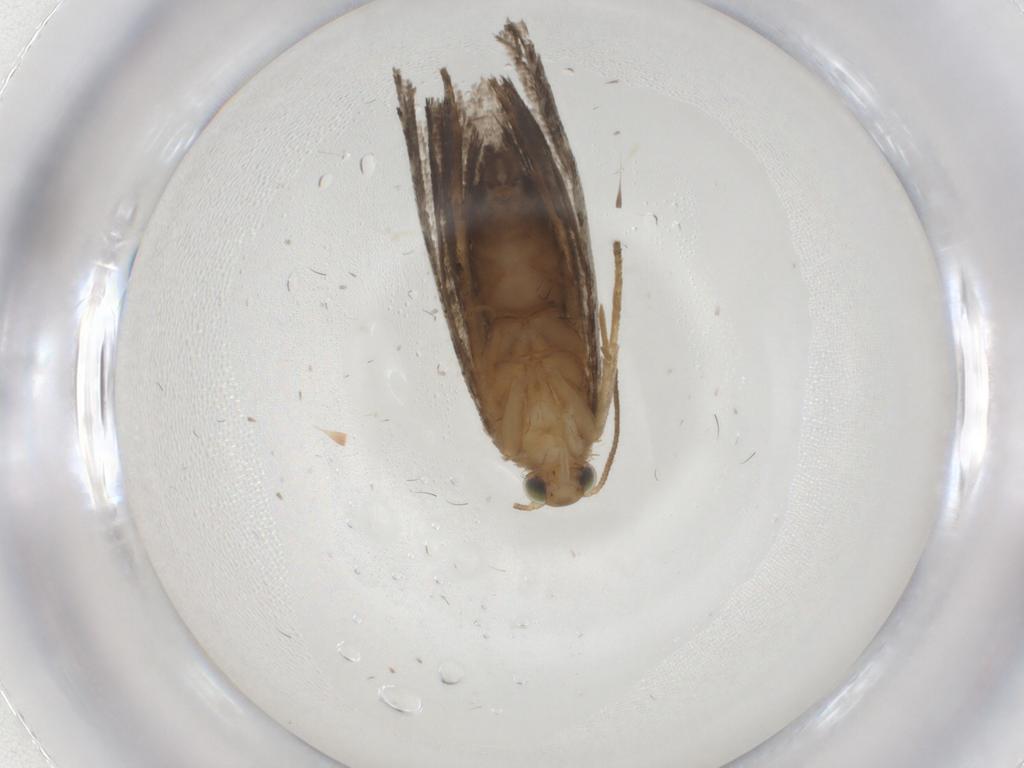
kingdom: Animalia
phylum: Arthropoda
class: Insecta
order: Lepidoptera
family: Tortricidae
